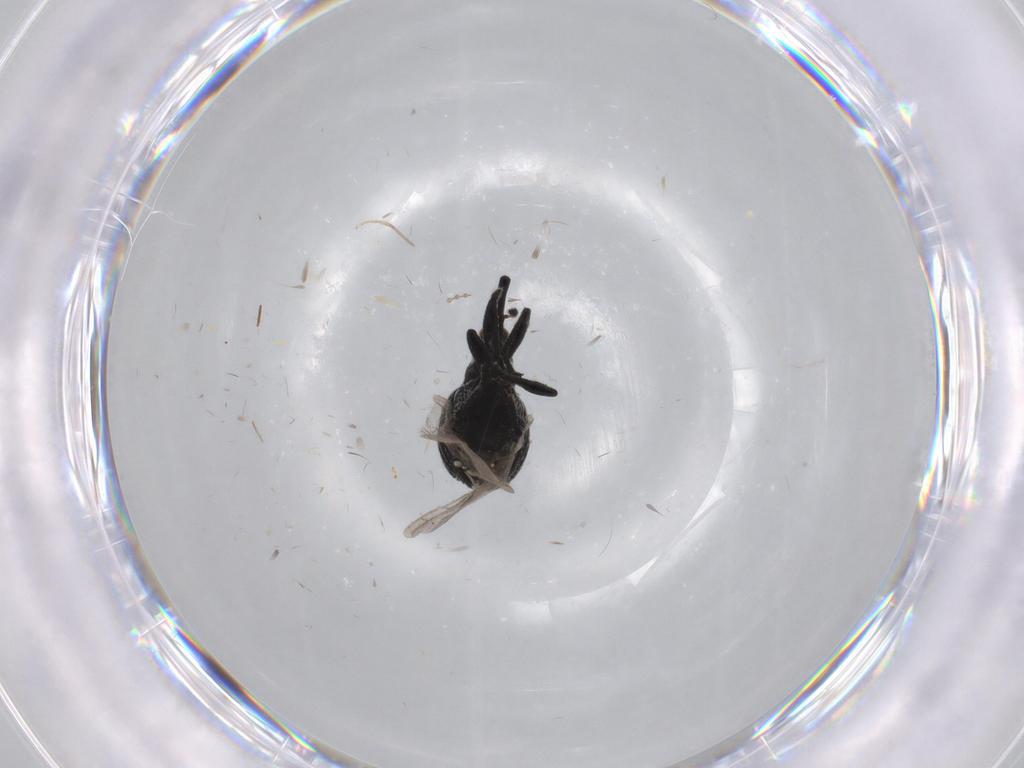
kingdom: Animalia
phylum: Arthropoda
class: Insecta
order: Coleoptera
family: Brentidae
